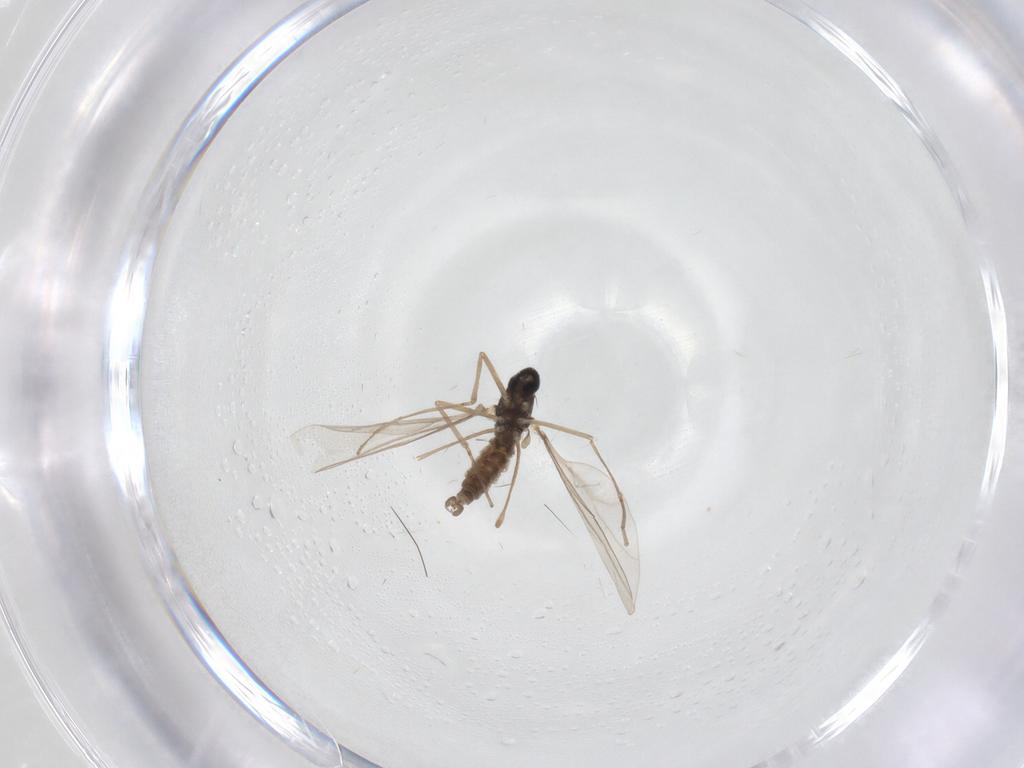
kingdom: Animalia
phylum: Arthropoda
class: Insecta
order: Diptera
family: Cecidomyiidae
